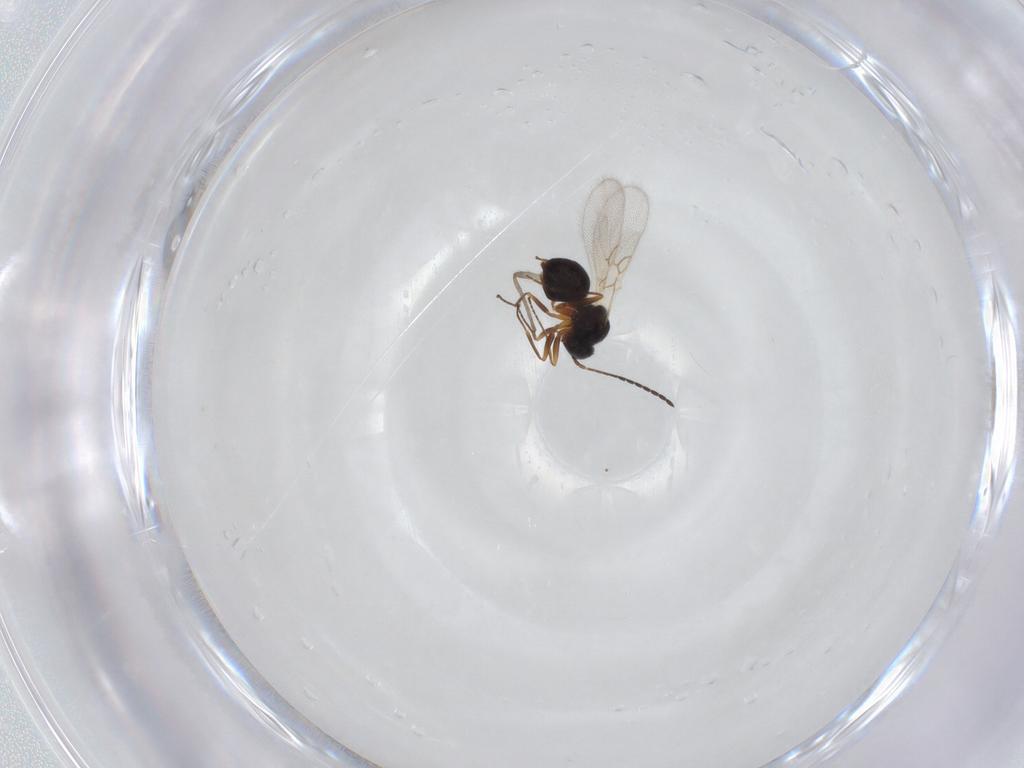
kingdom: Animalia
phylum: Arthropoda
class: Insecta
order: Hymenoptera
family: Figitidae
